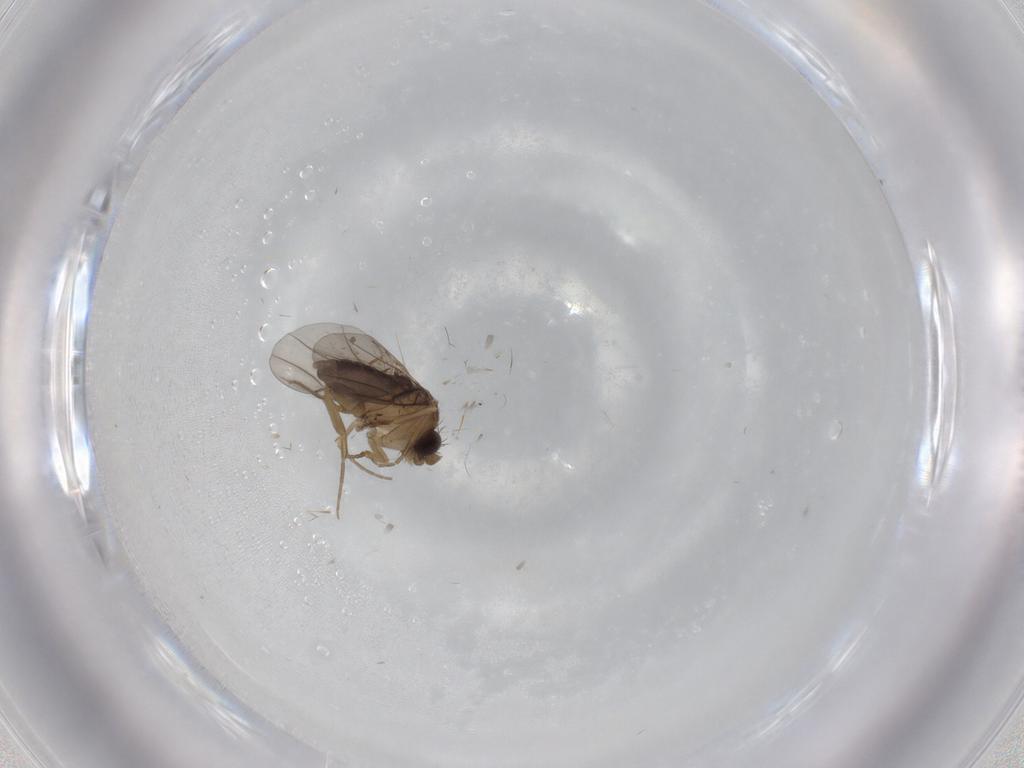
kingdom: Animalia
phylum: Arthropoda
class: Insecta
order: Diptera
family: Phoridae
